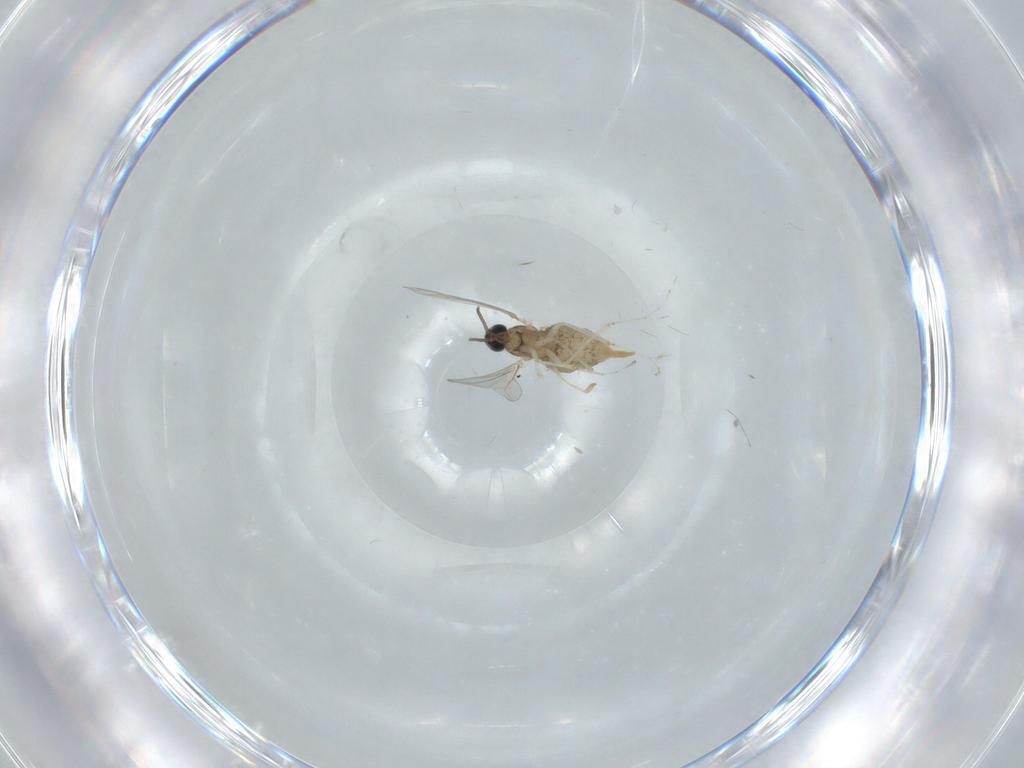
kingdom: Animalia
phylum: Arthropoda
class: Insecta
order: Diptera
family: Cecidomyiidae
